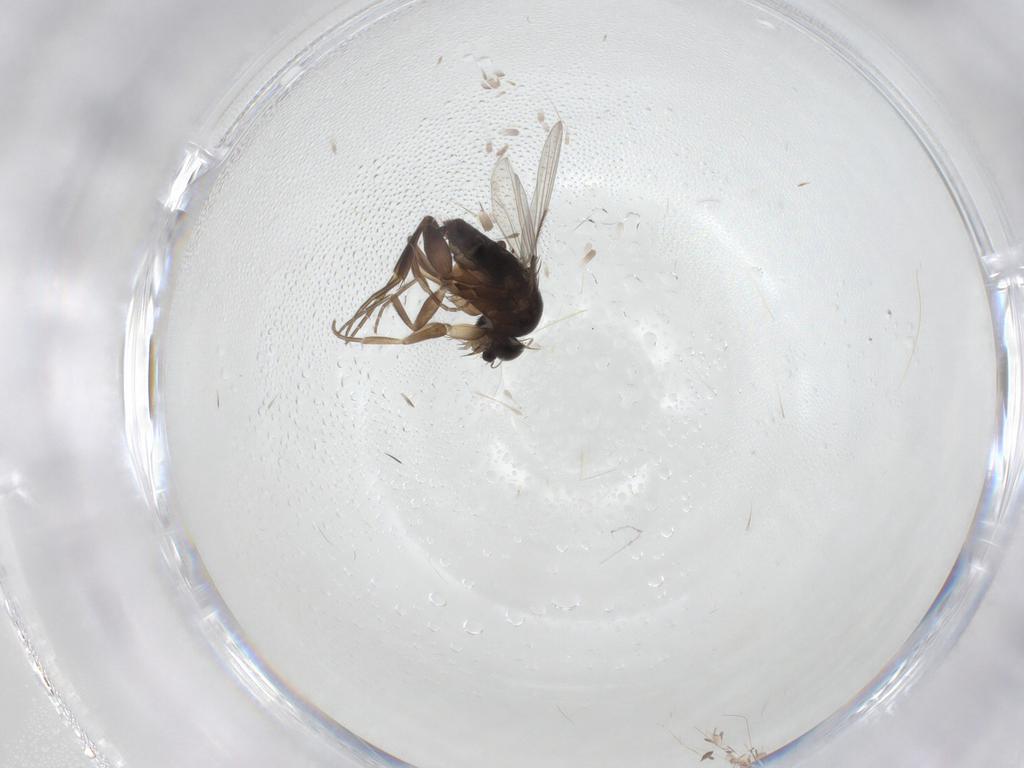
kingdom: Animalia
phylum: Arthropoda
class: Insecta
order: Diptera
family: Phoridae
